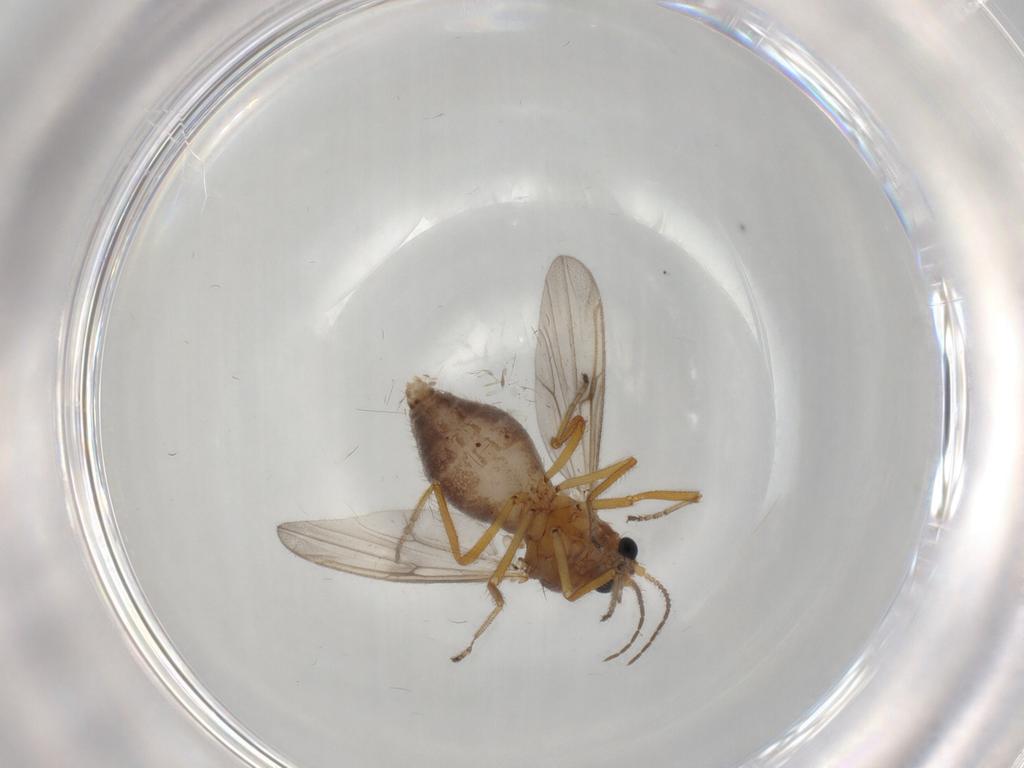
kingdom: Animalia
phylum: Arthropoda
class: Insecta
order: Diptera
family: Ceratopogonidae
